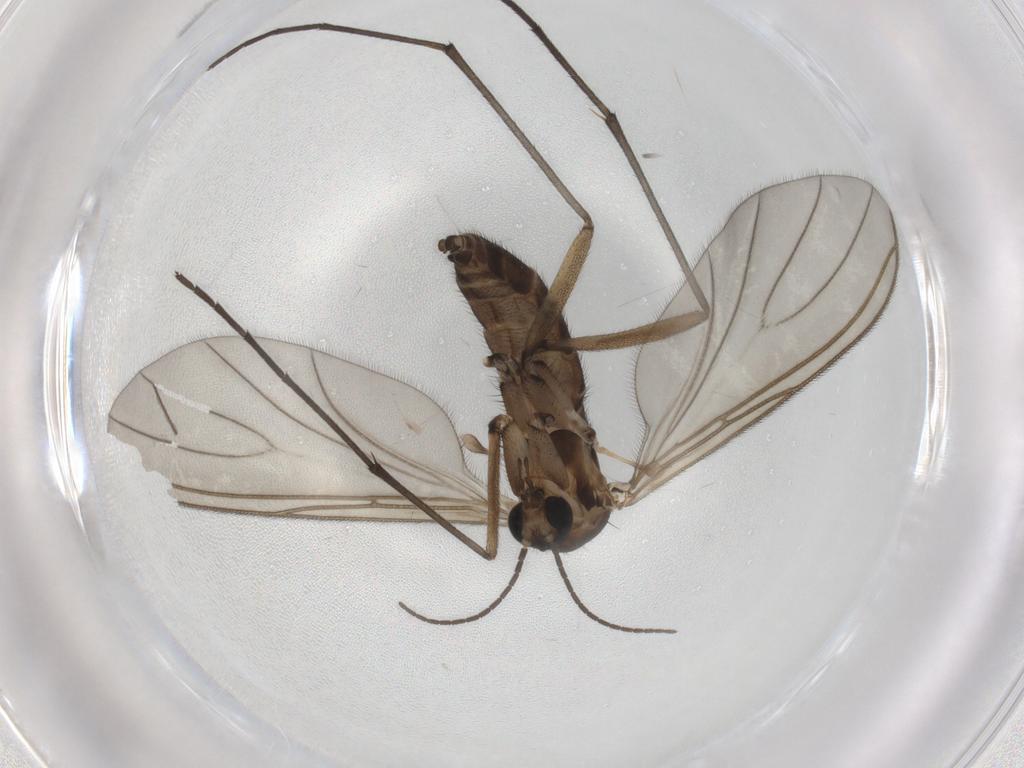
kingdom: Animalia
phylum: Arthropoda
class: Insecta
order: Diptera
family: Sciaridae
